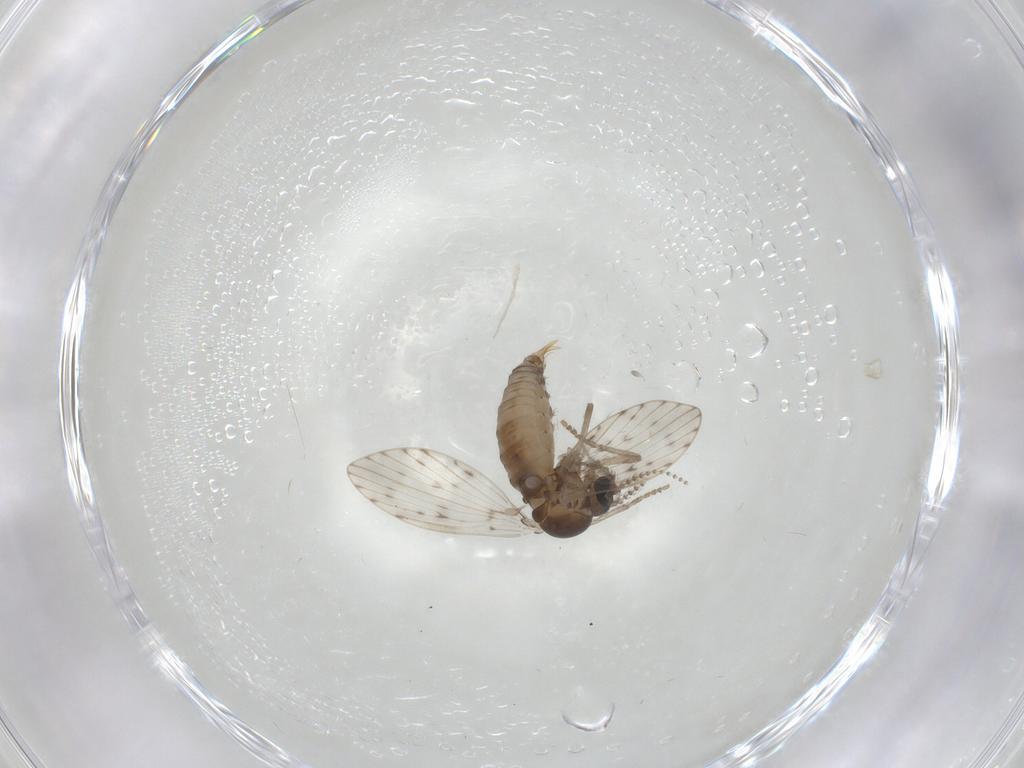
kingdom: Animalia
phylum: Arthropoda
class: Insecta
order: Diptera
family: Psychodidae
